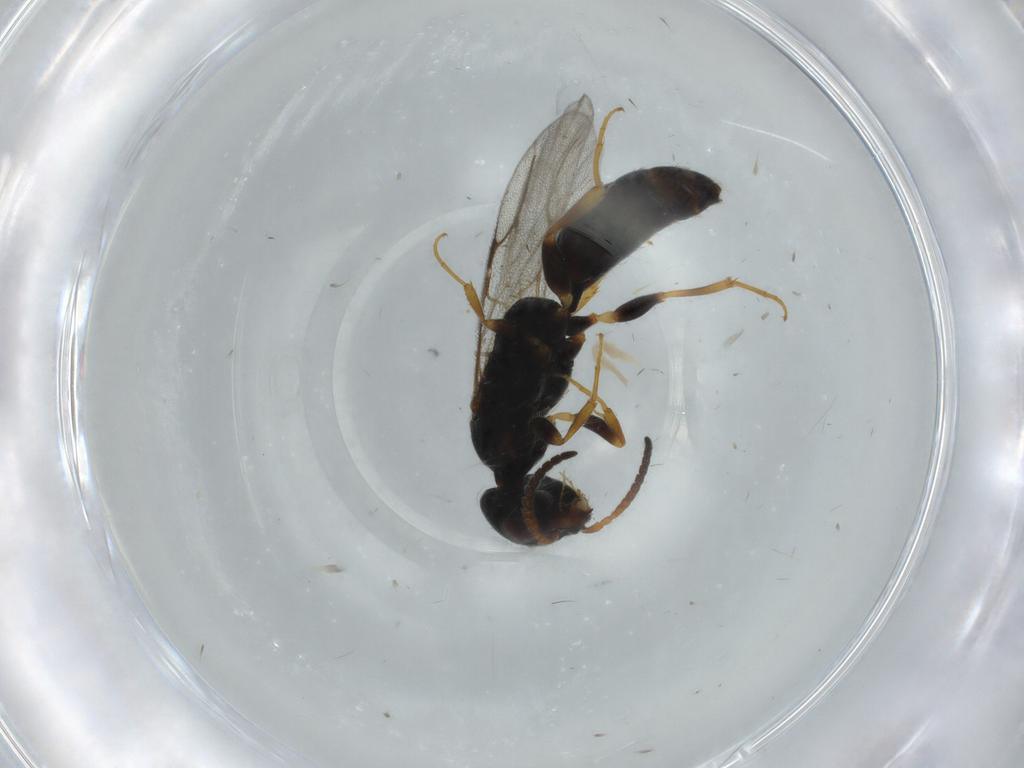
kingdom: Animalia
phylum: Arthropoda
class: Insecta
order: Hymenoptera
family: Bethylidae
